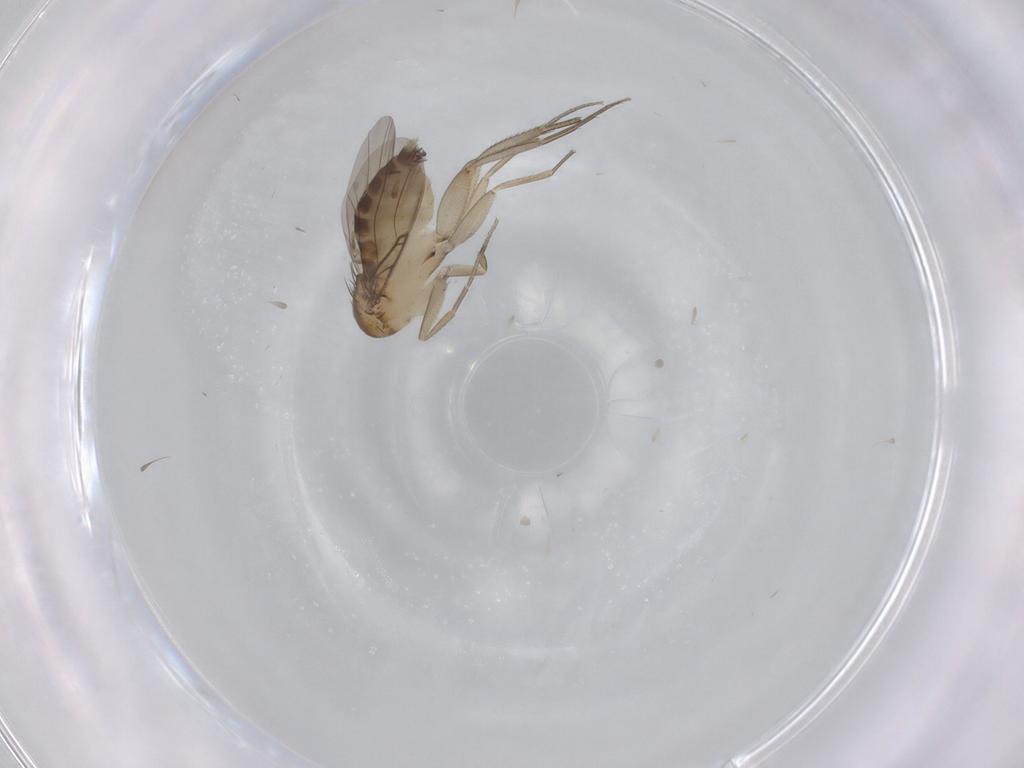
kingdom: Animalia
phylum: Arthropoda
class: Insecta
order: Diptera
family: Phoridae
